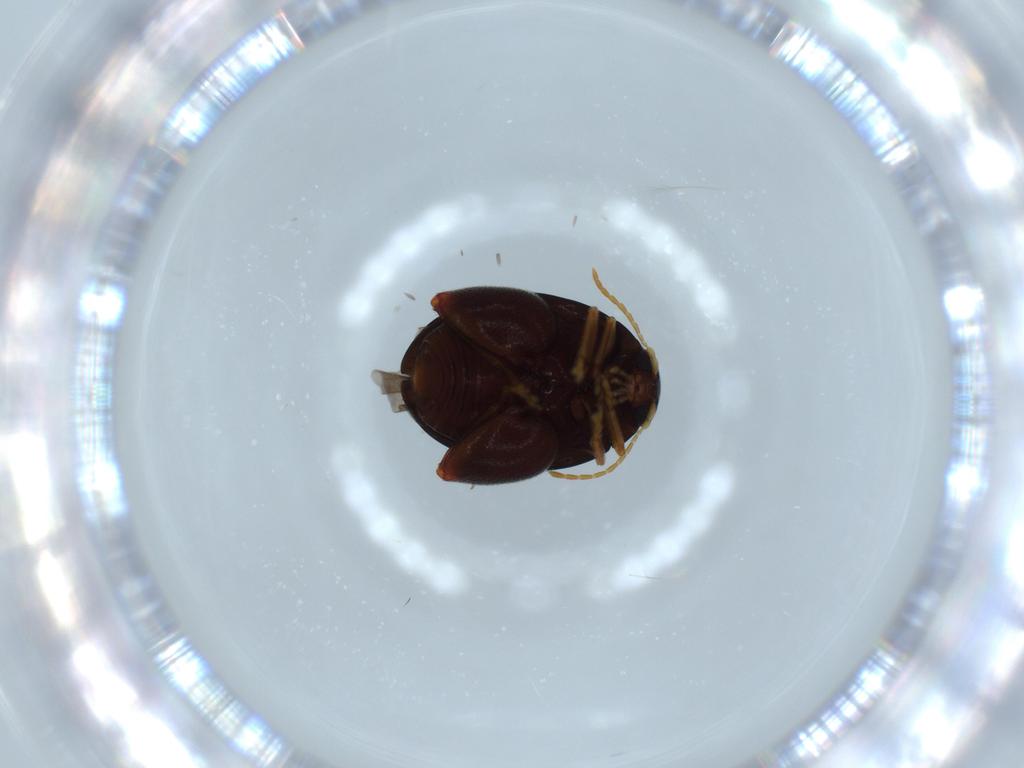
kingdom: Animalia
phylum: Arthropoda
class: Insecta
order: Coleoptera
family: Chrysomelidae
